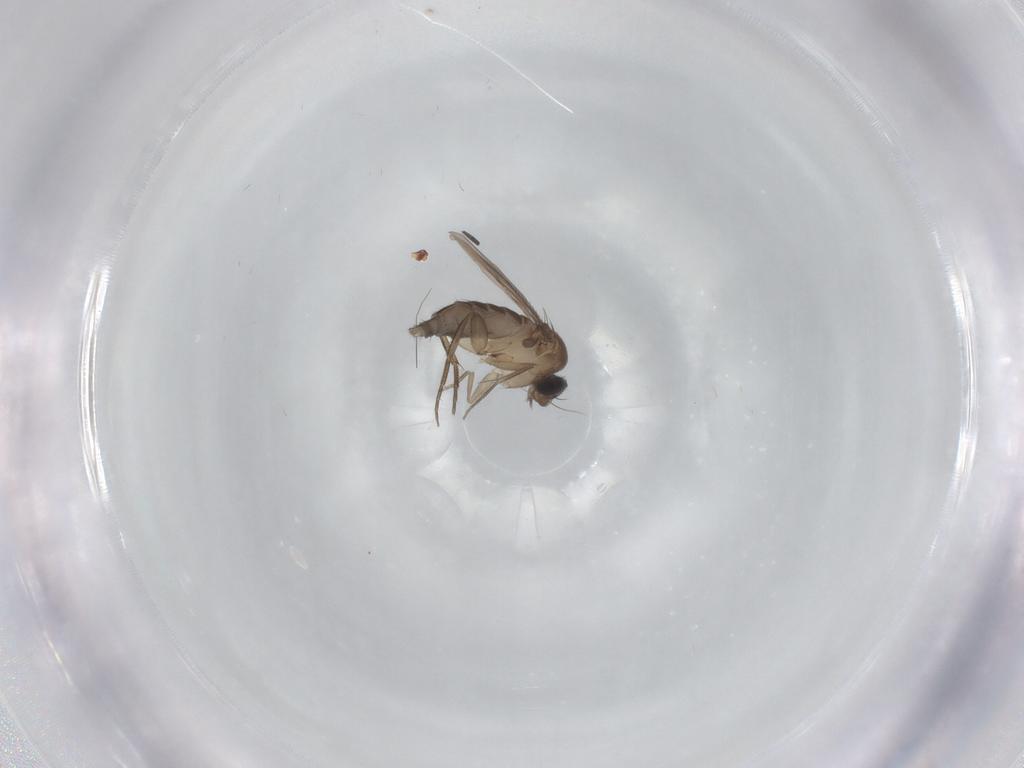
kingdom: Animalia
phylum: Arthropoda
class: Insecta
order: Diptera
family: Phoridae
